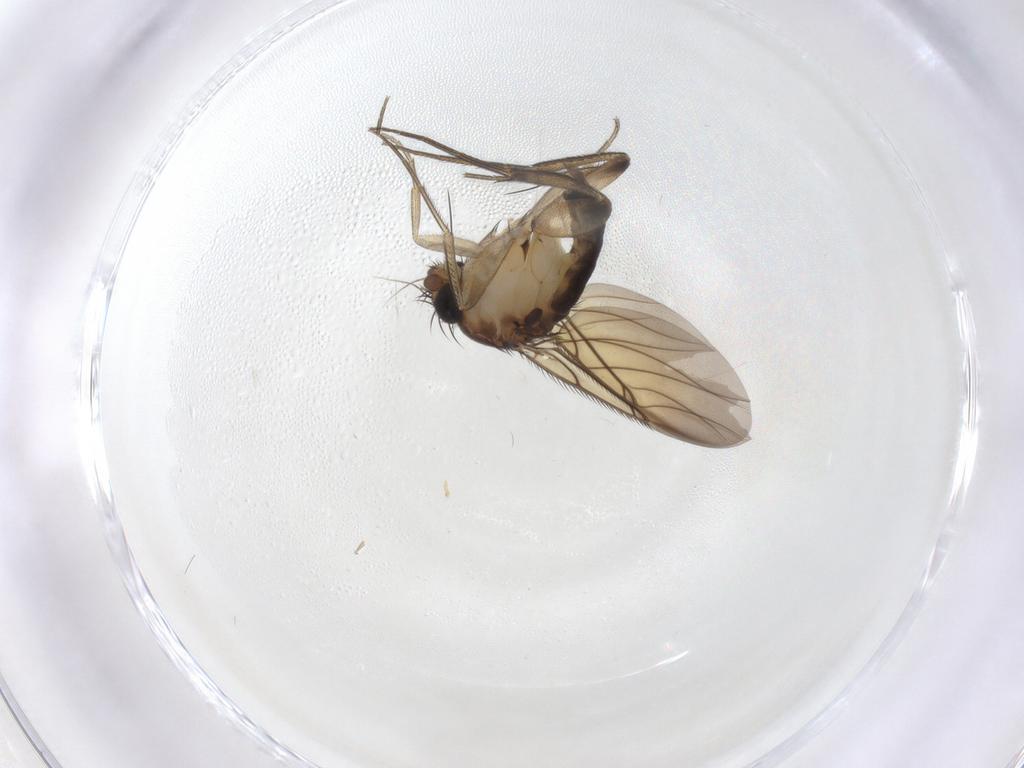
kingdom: Animalia
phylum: Arthropoda
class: Insecta
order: Diptera
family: Phoridae
